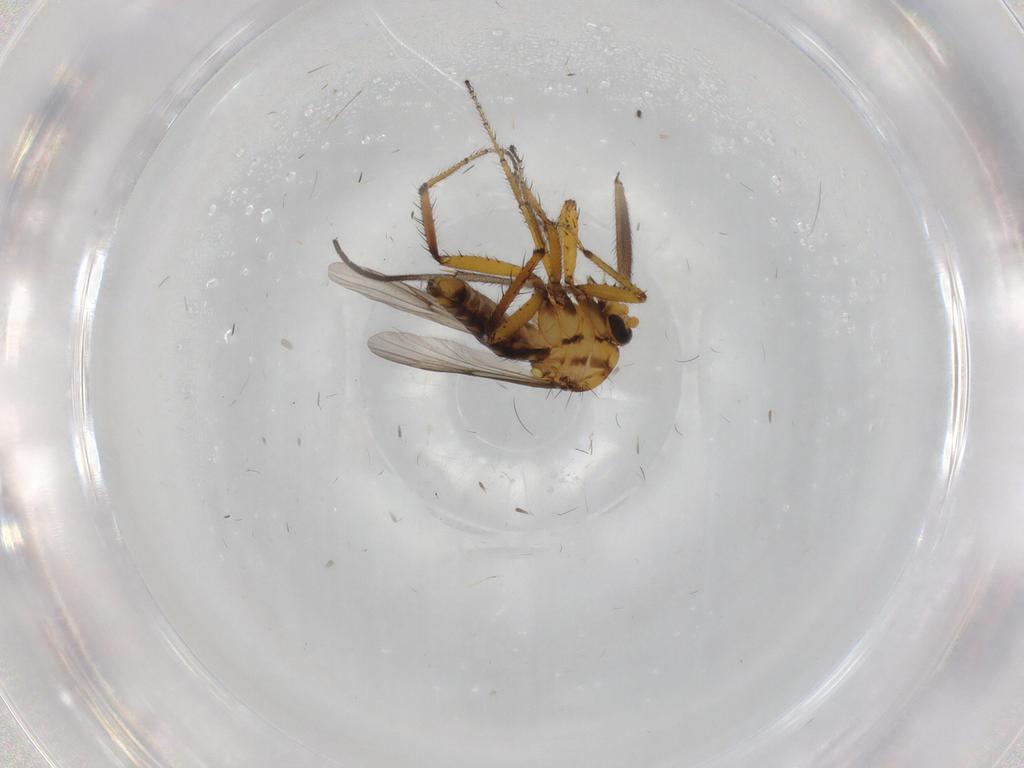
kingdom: Animalia
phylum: Arthropoda
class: Insecta
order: Diptera
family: Sciaridae
